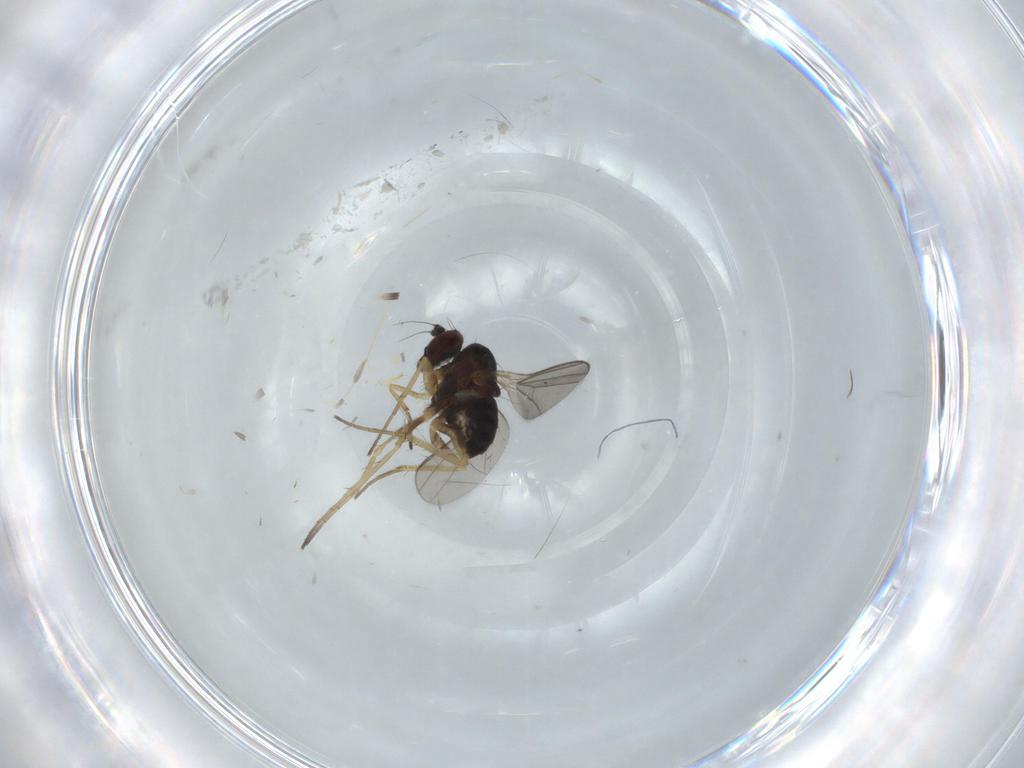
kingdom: Animalia
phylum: Arthropoda
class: Insecta
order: Diptera
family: Dolichopodidae
